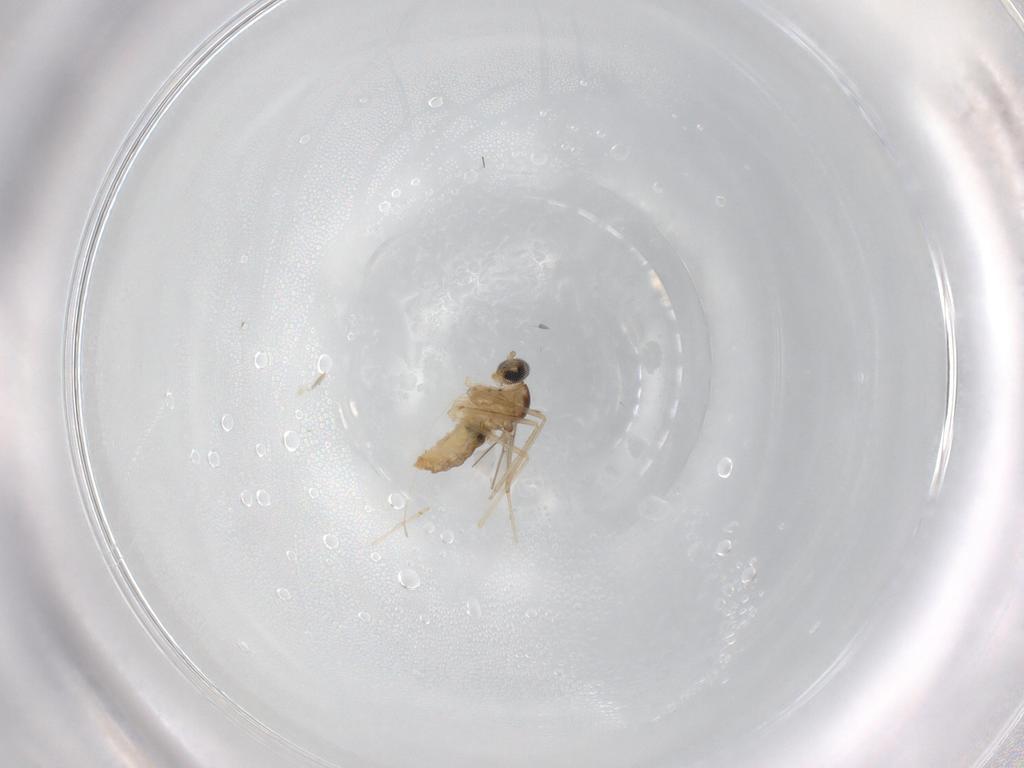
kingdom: Animalia
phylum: Arthropoda
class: Insecta
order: Diptera
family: Cecidomyiidae
